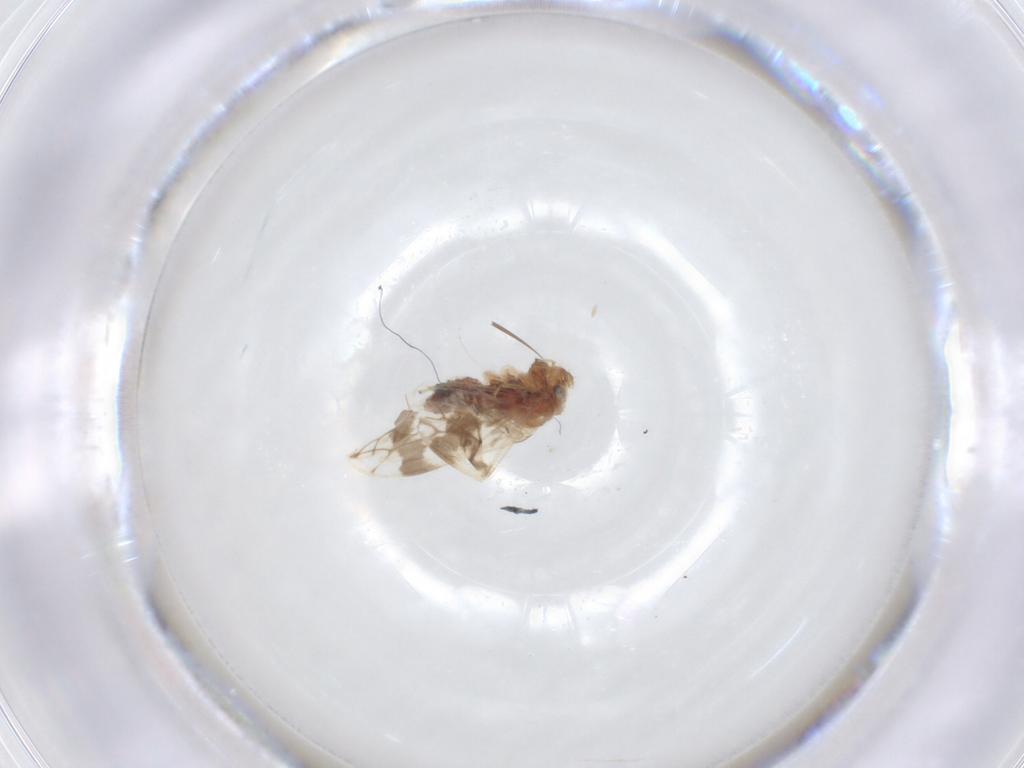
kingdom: Animalia
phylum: Arthropoda
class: Insecta
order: Psocodea
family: Pseudocaeciliidae
